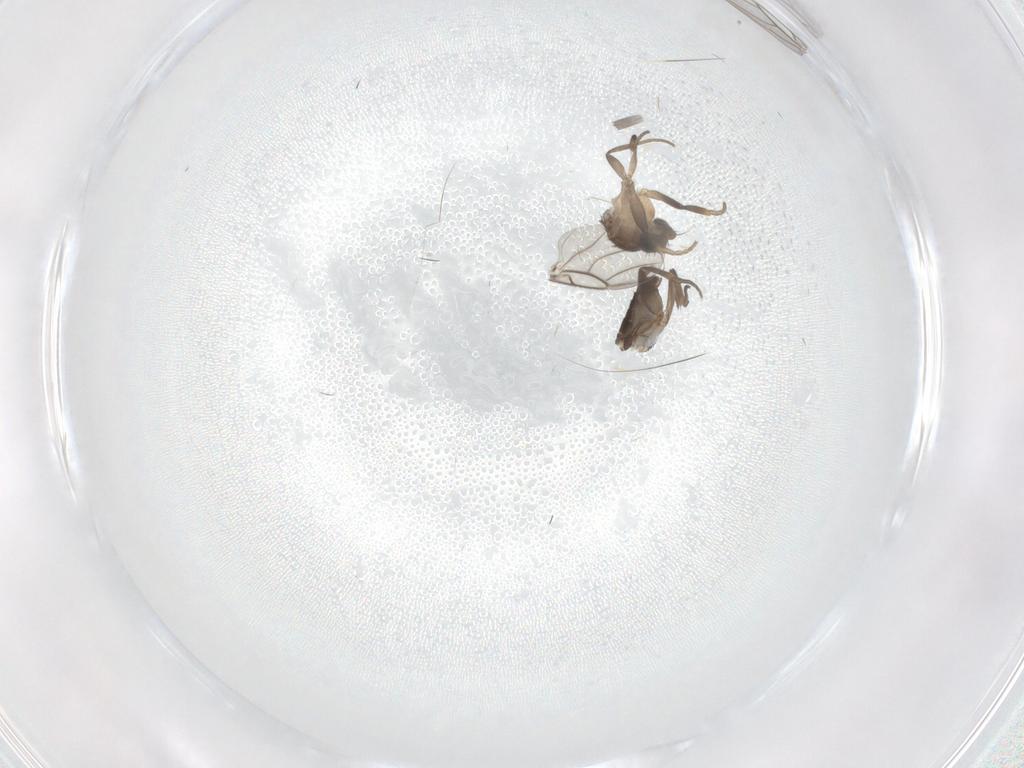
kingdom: Animalia
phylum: Arthropoda
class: Insecta
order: Diptera
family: Phoridae
